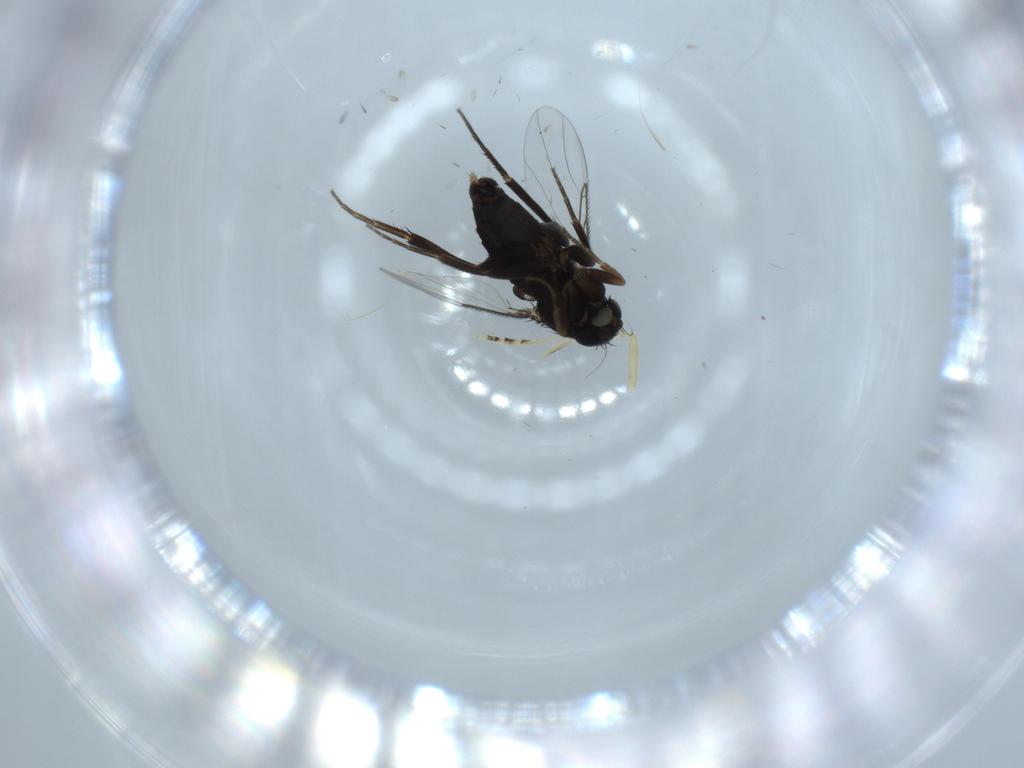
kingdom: Animalia
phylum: Arthropoda
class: Insecta
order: Diptera
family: Phoridae
